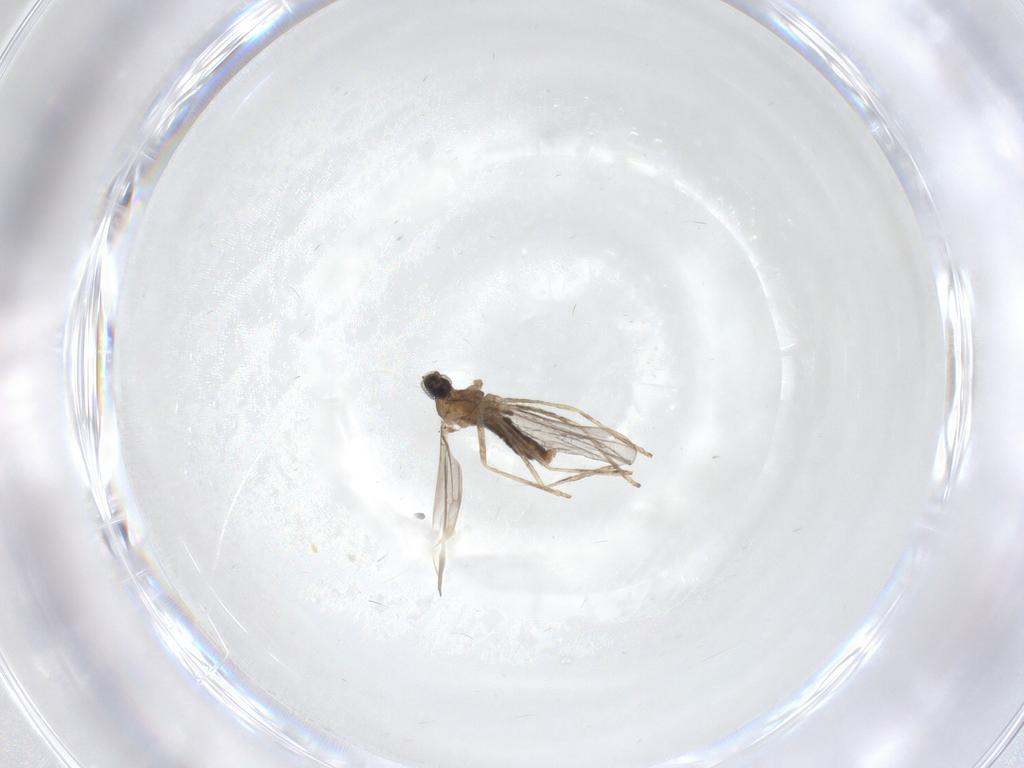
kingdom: Animalia
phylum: Arthropoda
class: Insecta
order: Diptera
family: Cecidomyiidae
